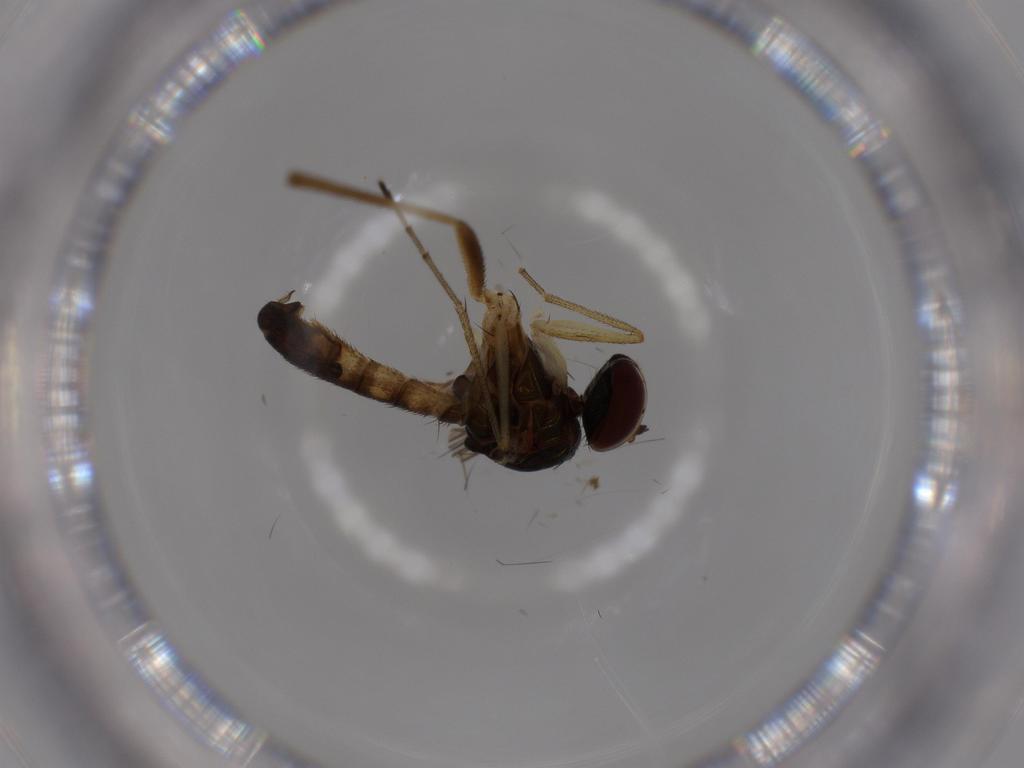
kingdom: Animalia
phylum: Arthropoda
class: Insecta
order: Diptera
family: Dolichopodidae
